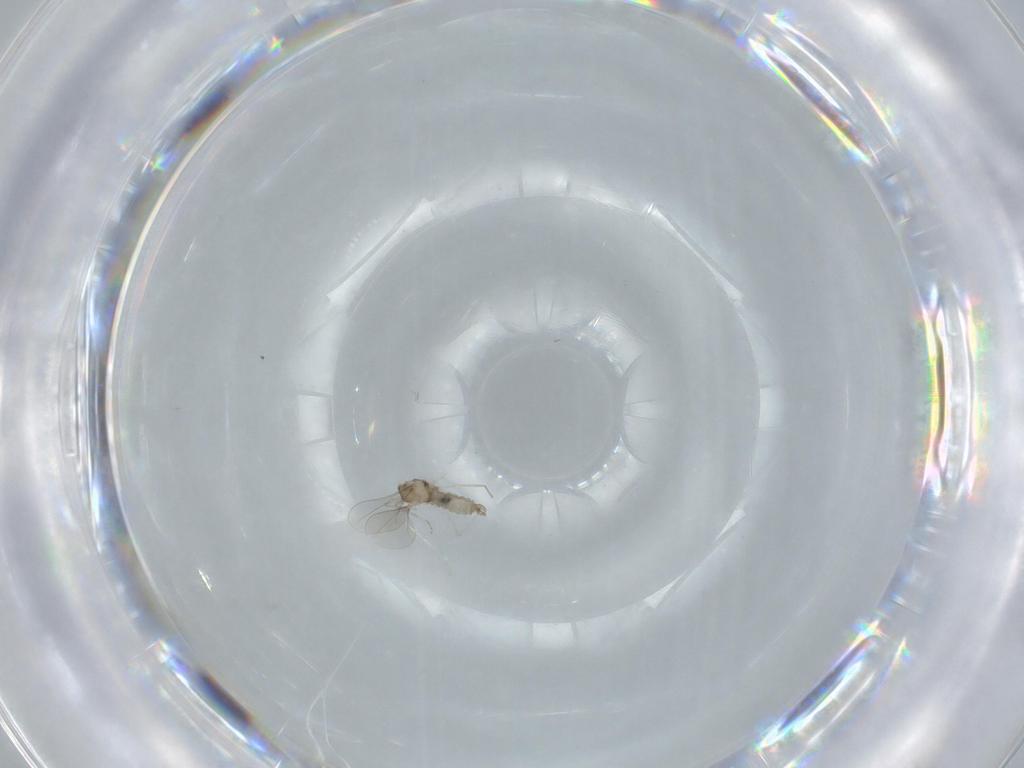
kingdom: Animalia
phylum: Arthropoda
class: Insecta
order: Diptera
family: Cecidomyiidae
